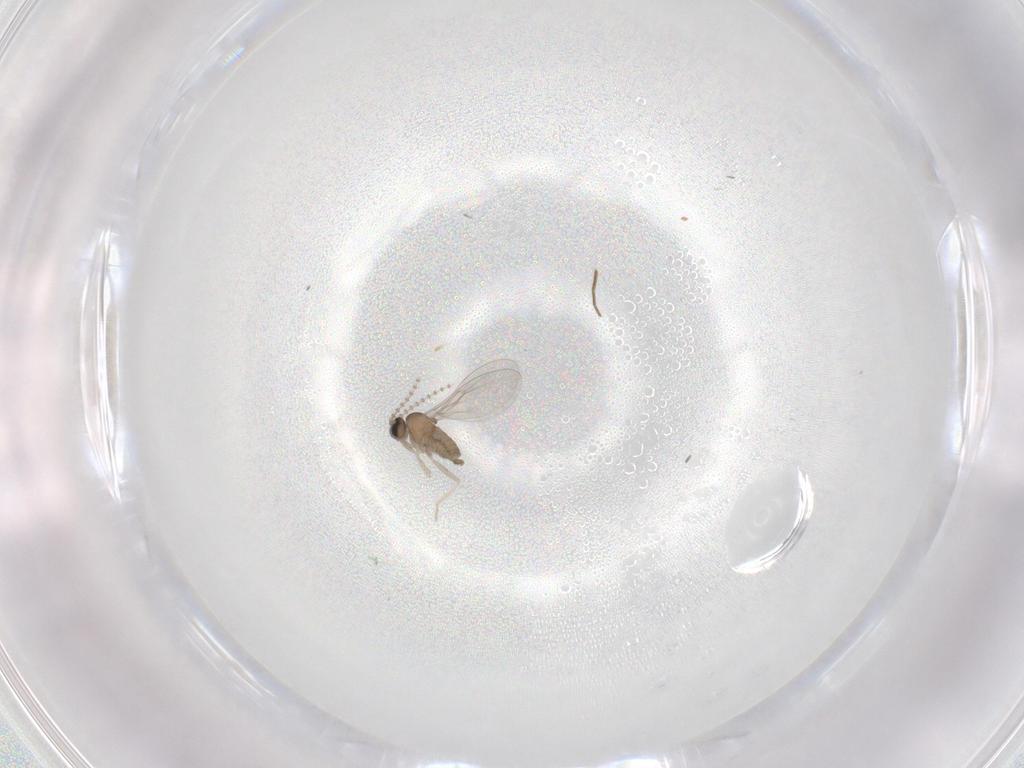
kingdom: Animalia
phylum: Arthropoda
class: Insecta
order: Diptera
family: Cecidomyiidae
